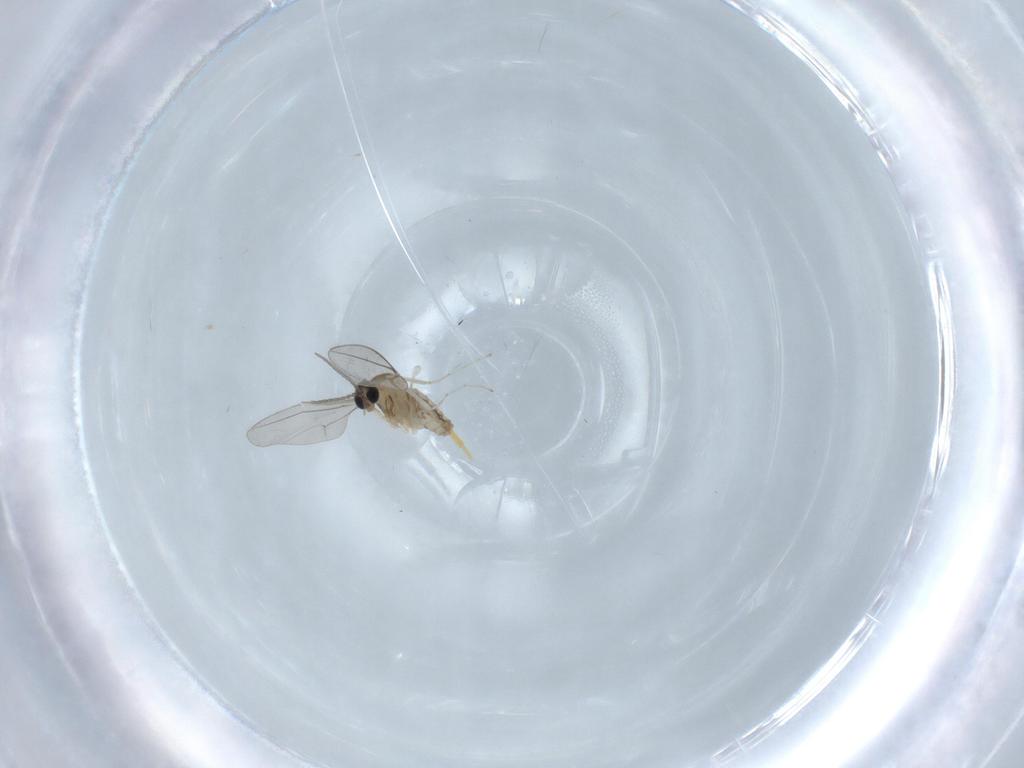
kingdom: Animalia
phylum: Arthropoda
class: Insecta
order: Diptera
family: Cecidomyiidae
